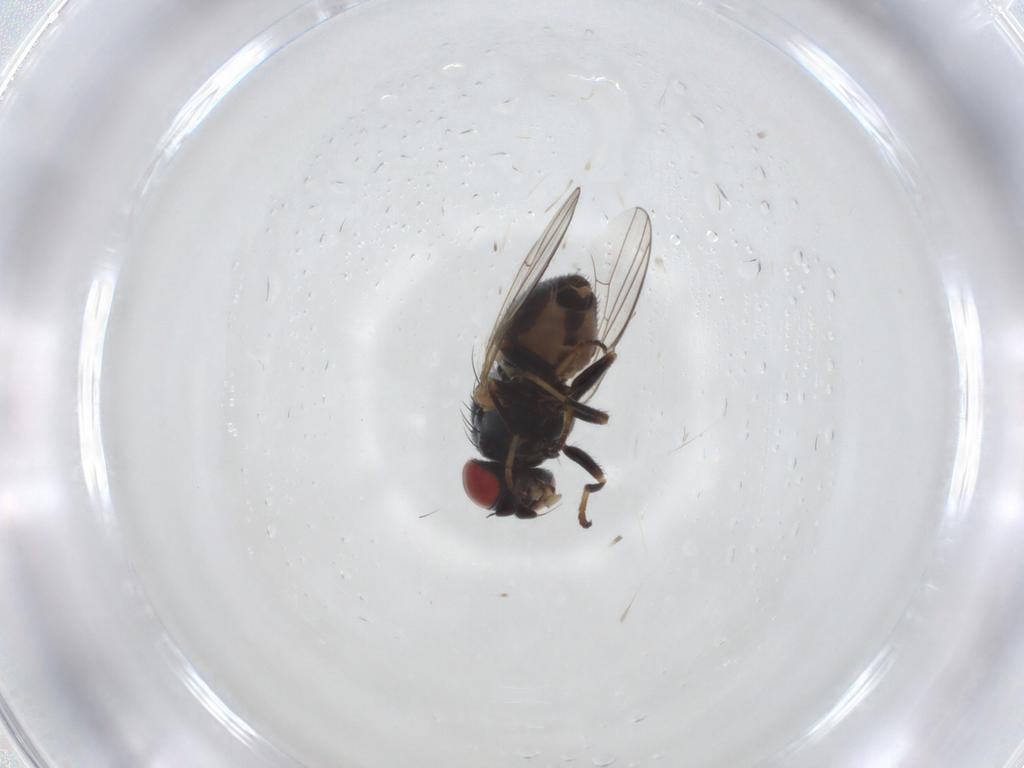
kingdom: Animalia
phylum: Arthropoda
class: Insecta
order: Diptera
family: Chamaemyiidae
